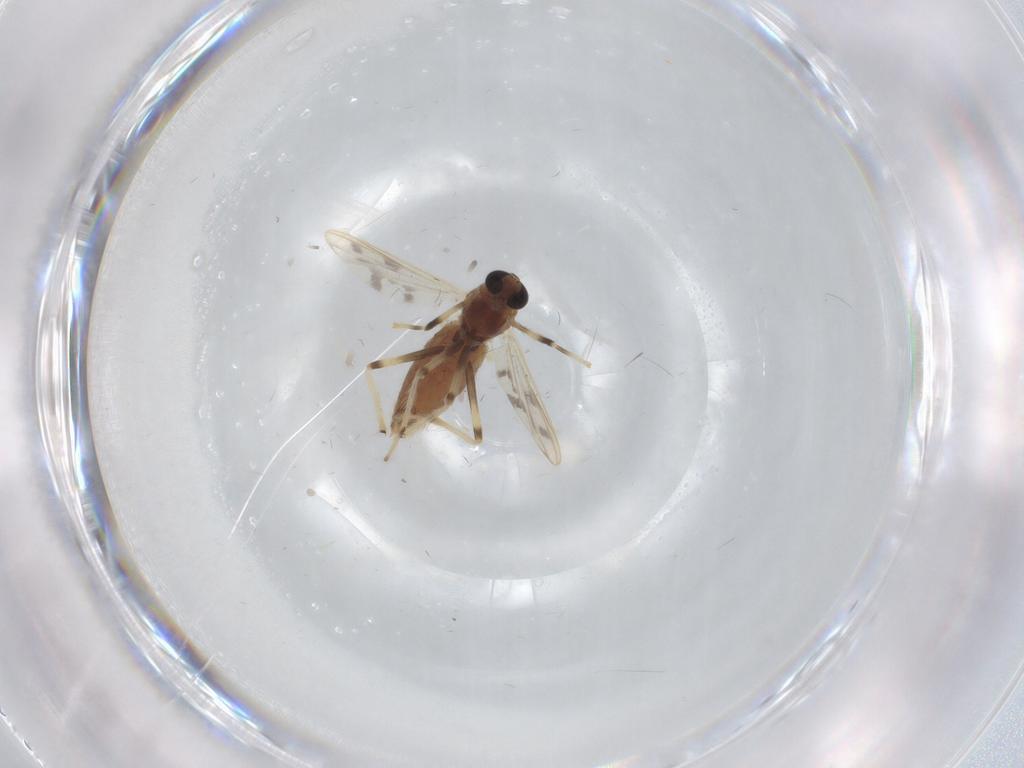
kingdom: Animalia
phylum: Arthropoda
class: Insecta
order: Diptera
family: Chironomidae
